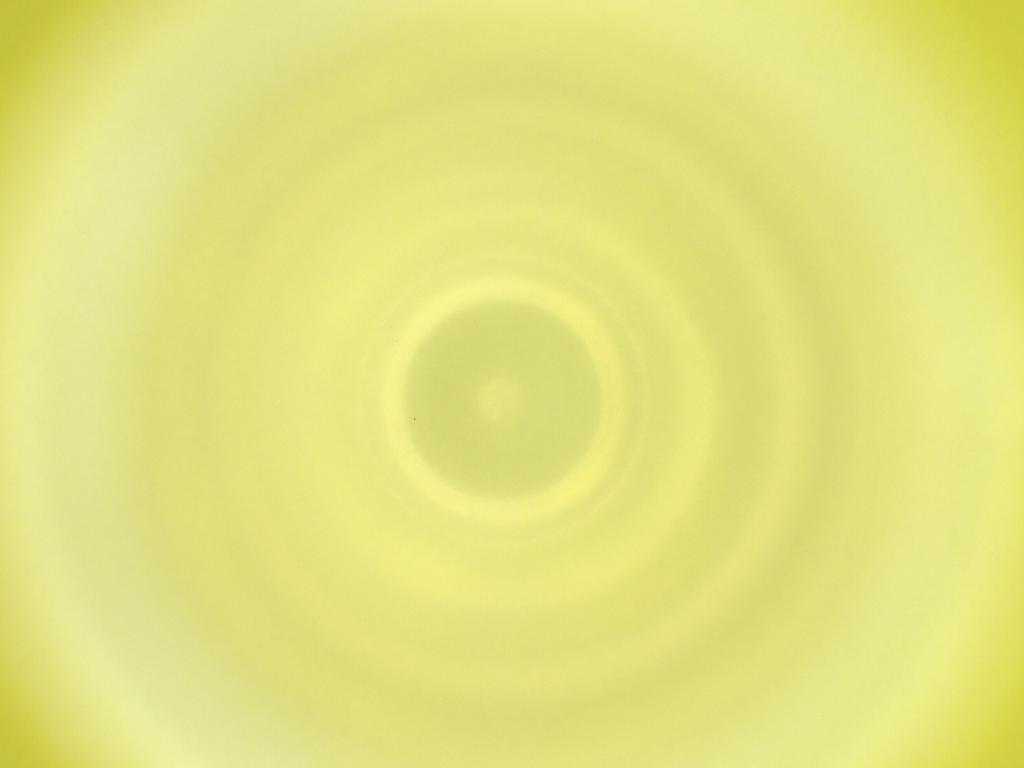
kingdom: Animalia
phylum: Arthropoda
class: Insecta
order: Diptera
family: Cecidomyiidae
